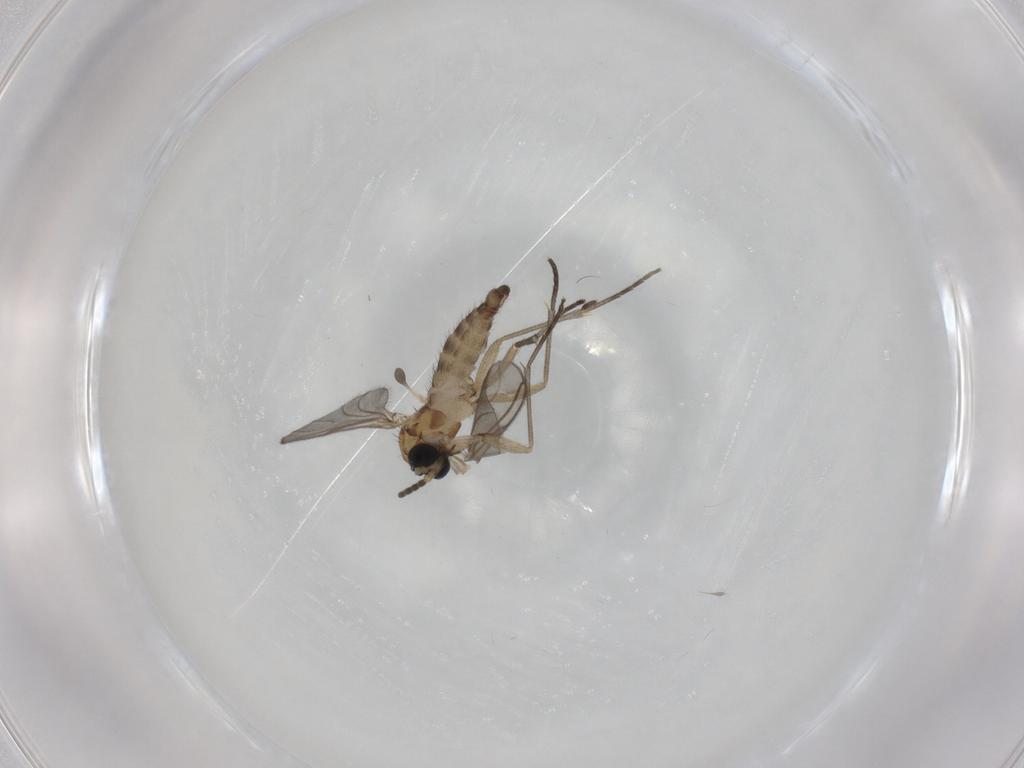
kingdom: Animalia
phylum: Arthropoda
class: Insecta
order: Diptera
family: Sciaridae
